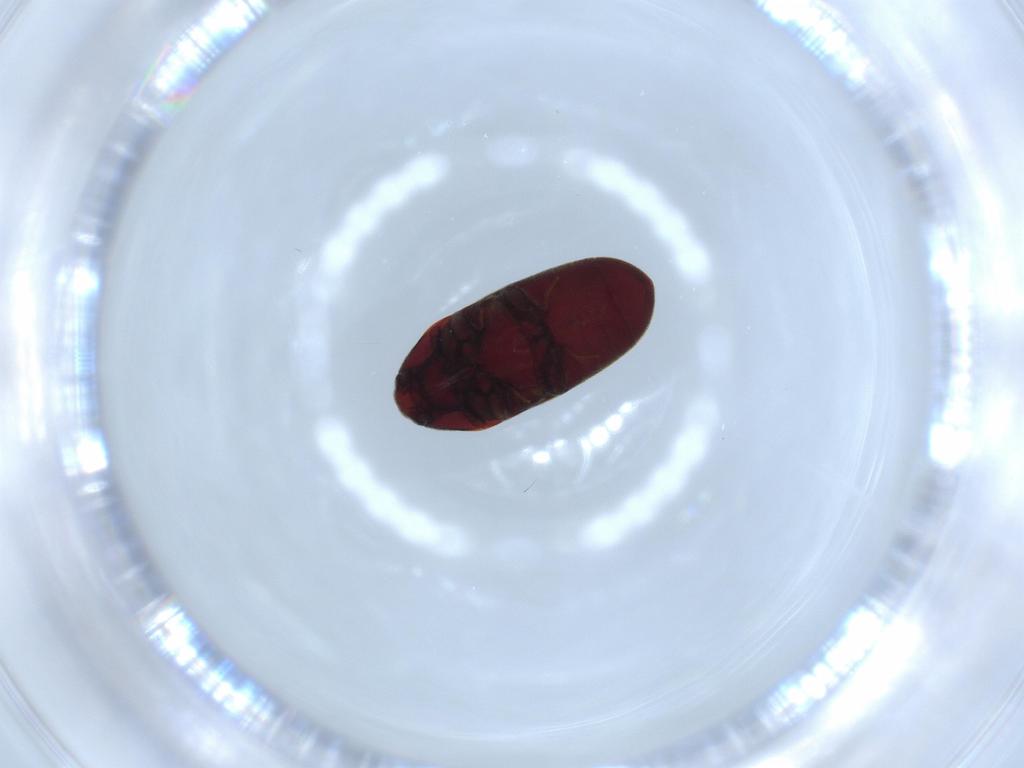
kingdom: Animalia
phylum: Arthropoda
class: Insecta
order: Coleoptera
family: Throscidae
